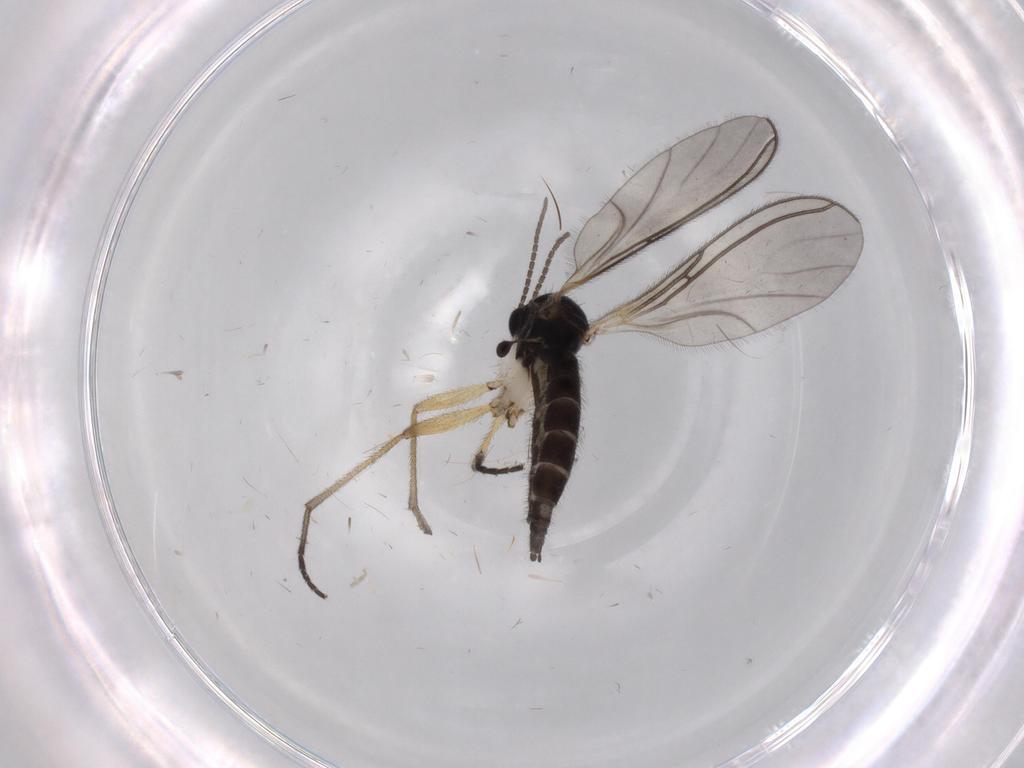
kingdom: Animalia
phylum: Arthropoda
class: Insecta
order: Diptera
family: Sciaridae
